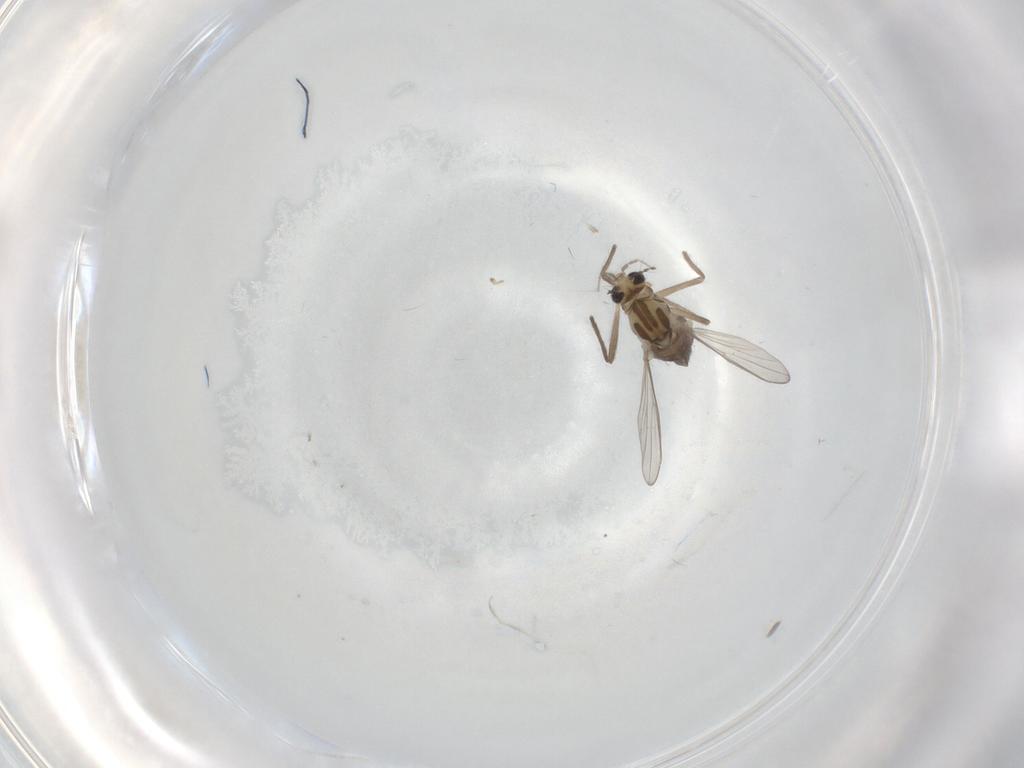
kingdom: Animalia
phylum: Arthropoda
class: Insecta
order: Diptera
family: Chironomidae
